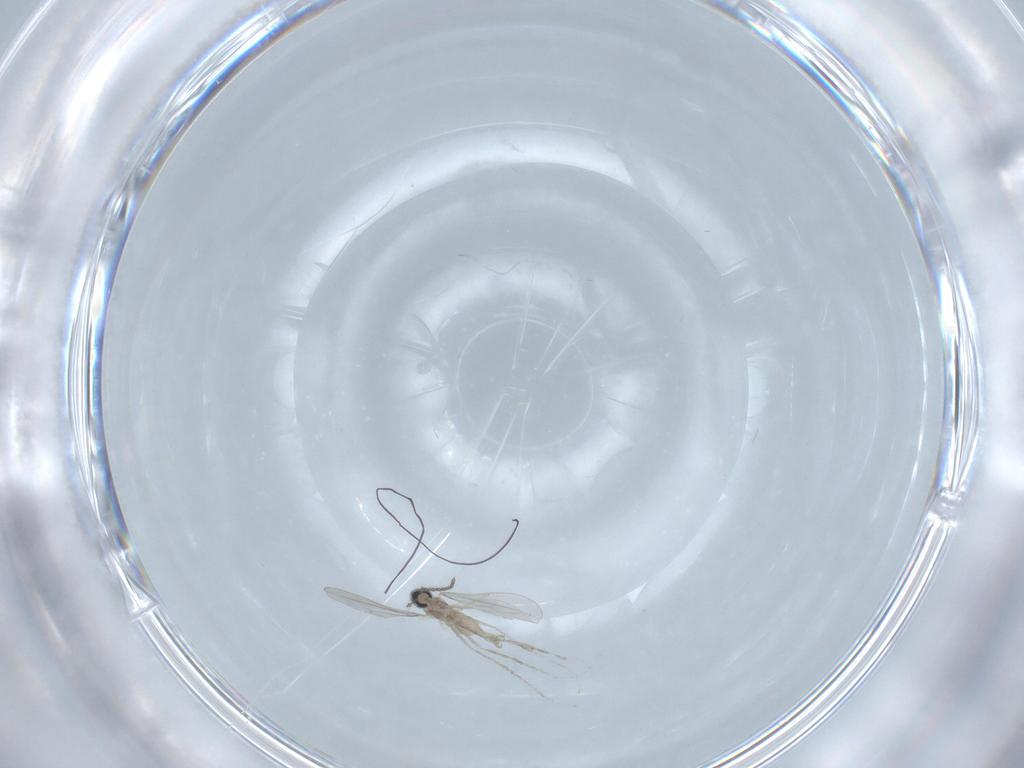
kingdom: Animalia
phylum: Arthropoda
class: Insecta
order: Diptera
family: Cecidomyiidae
